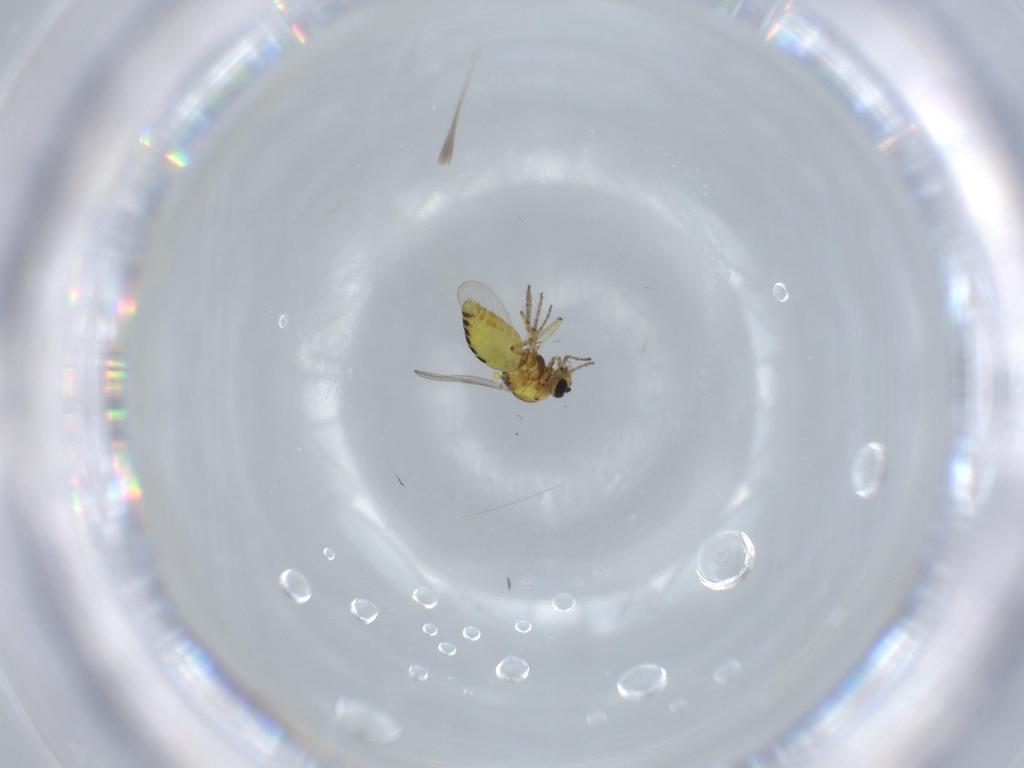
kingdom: Animalia
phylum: Arthropoda
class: Insecta
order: Diptera
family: Ceratopogonidae
